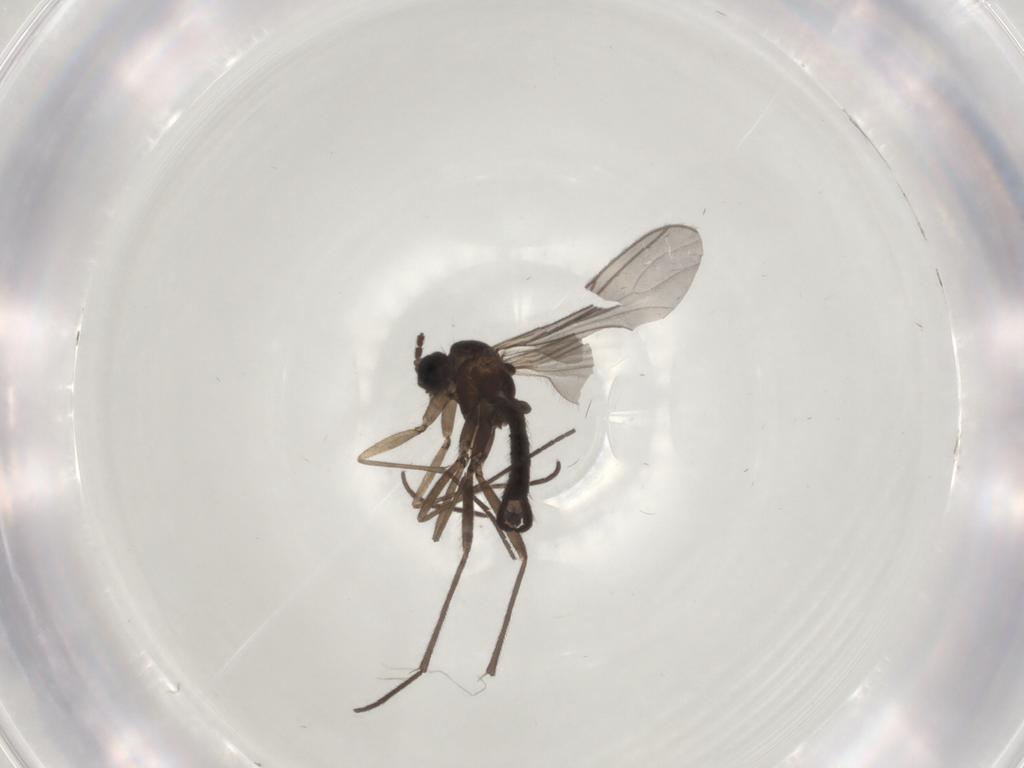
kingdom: Animalia
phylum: Arthropoda
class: Insecta
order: Diptera
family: Sciaridae
